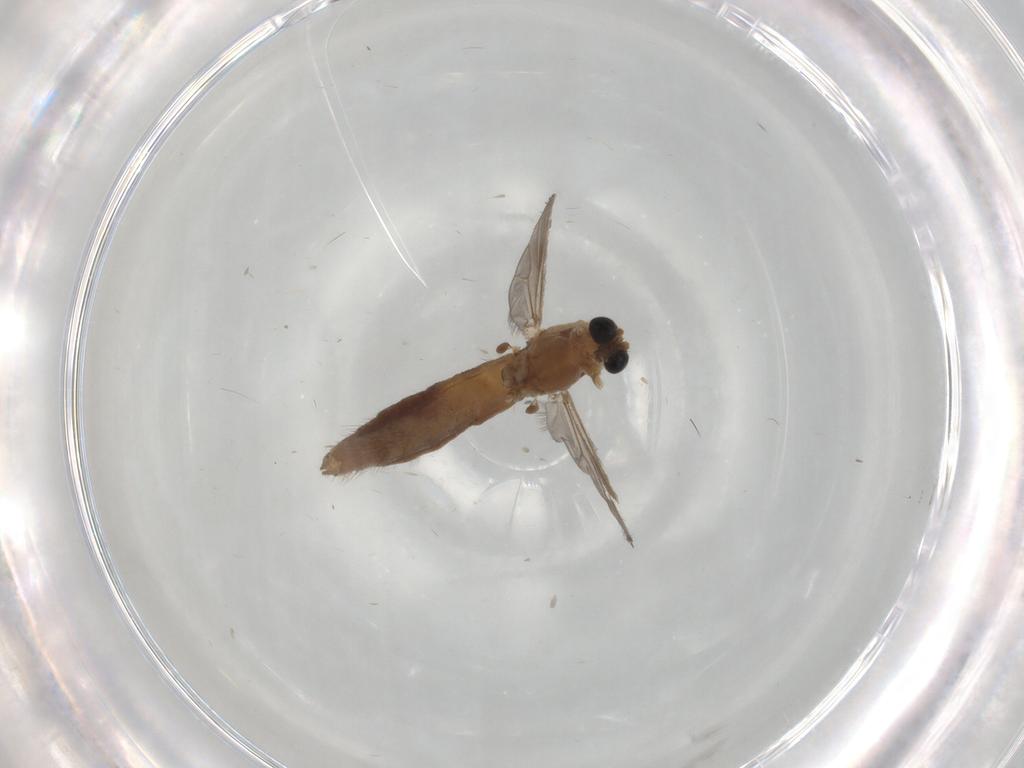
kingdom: Animalia
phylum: Arthropoda
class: Insecta
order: Diptera
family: Chironomidae
